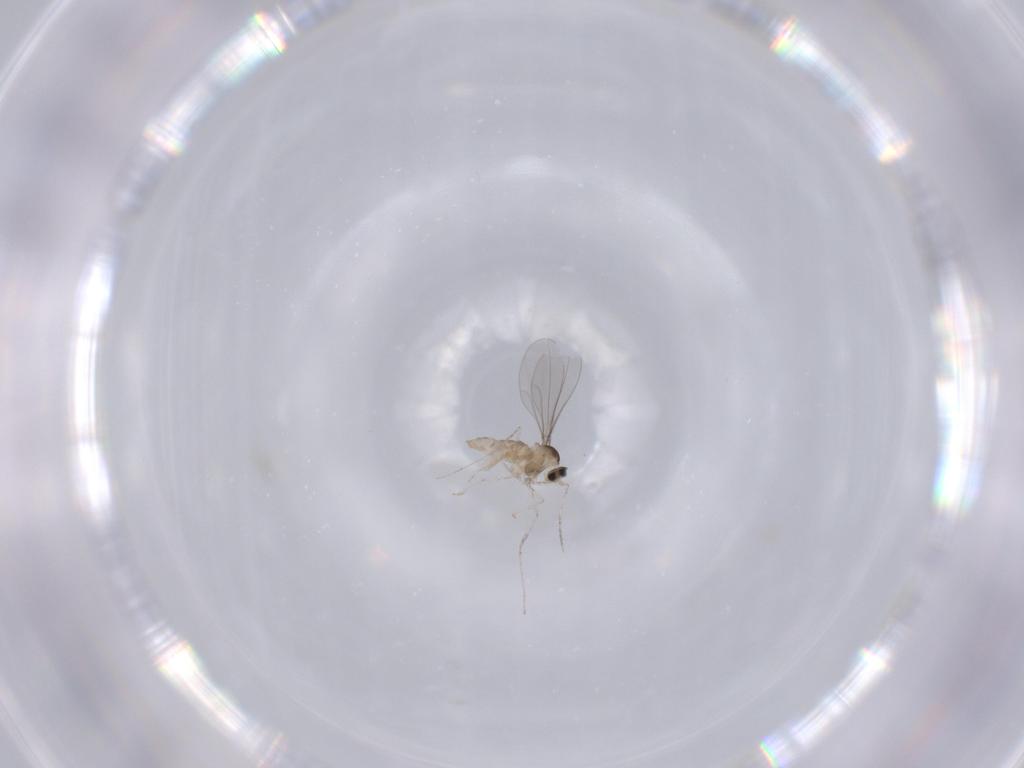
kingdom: Animalia
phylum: Arthropoda
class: Insecta
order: Diptera
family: Cecidomyiidae
